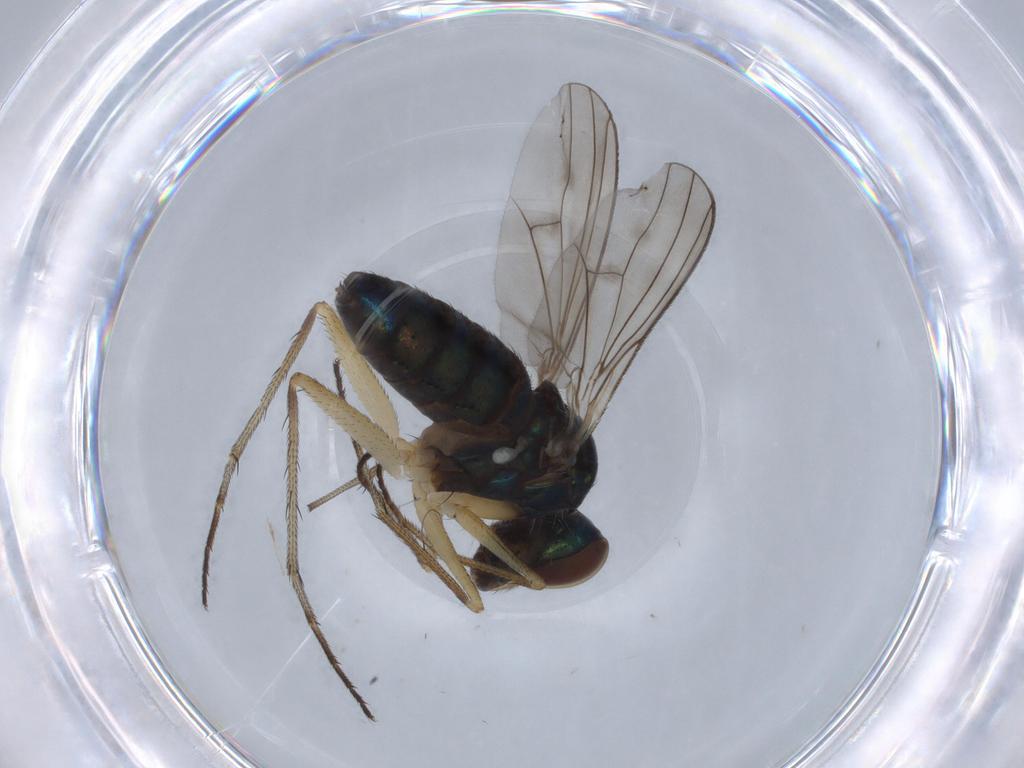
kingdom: Animalia
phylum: Arthropoda
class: Insecta
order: Diptera
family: Dolichopodidae
